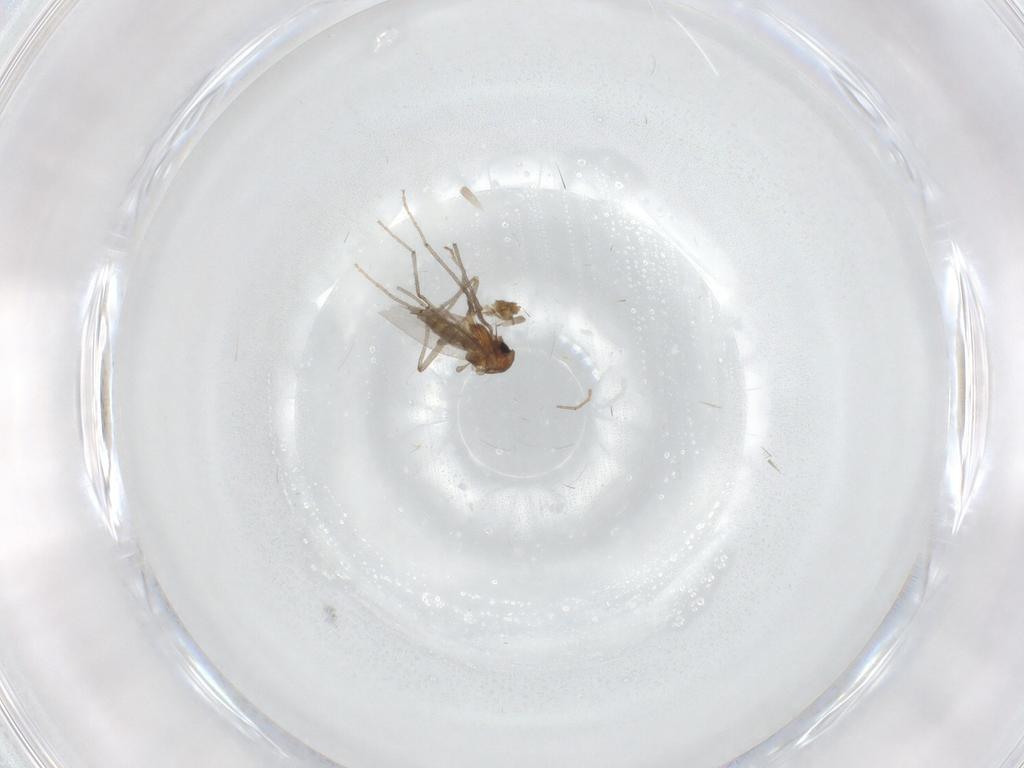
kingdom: Animalia
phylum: Arthropoda
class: Insecta
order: Diptera
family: Chironomidae
